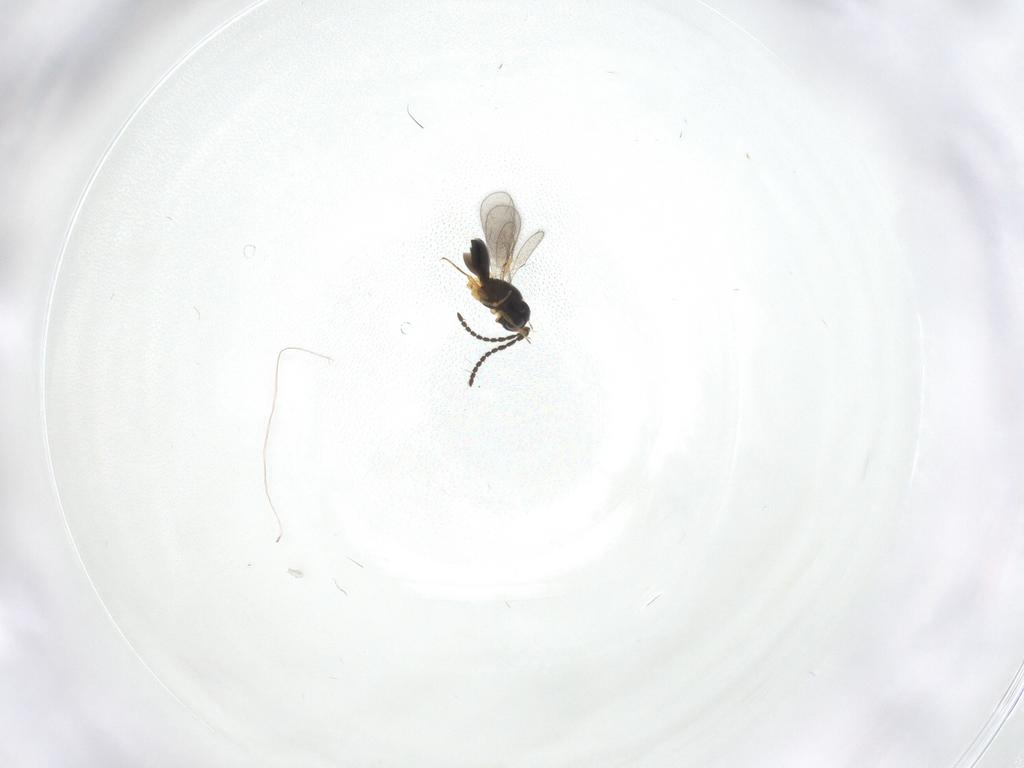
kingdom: Animalia
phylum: Arthropoda
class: Insecta
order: Hymenoptera
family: Scelionidae
